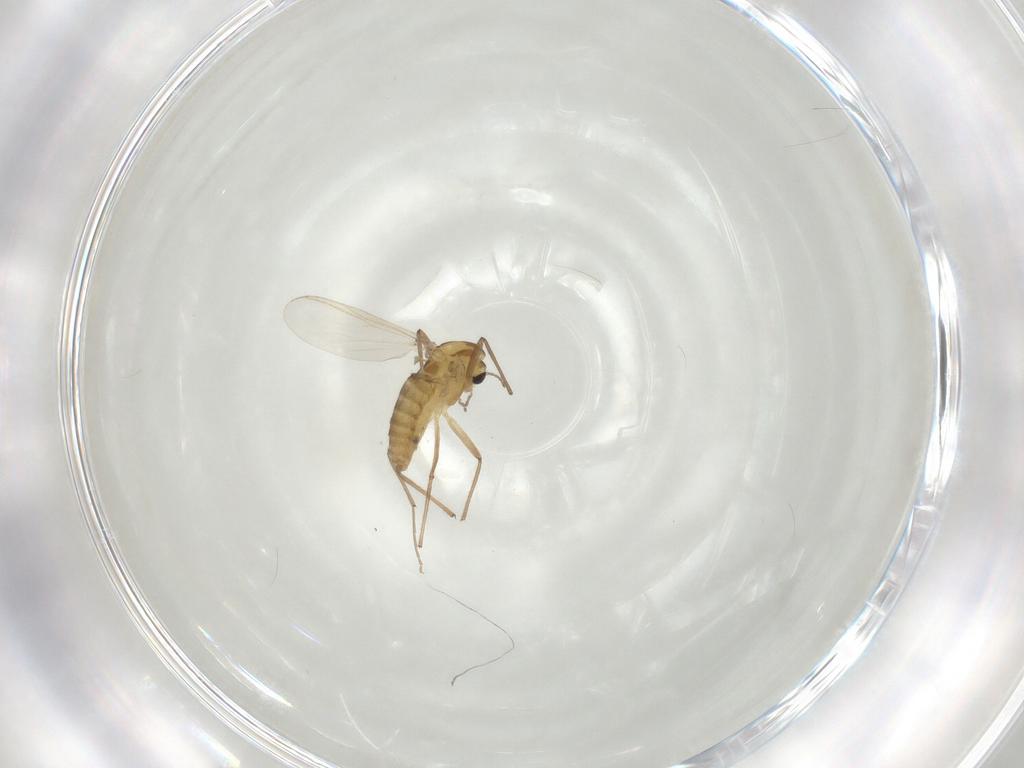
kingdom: Animalia
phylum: Arthropoda
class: Insecta
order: Diptera
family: Chironomidae
